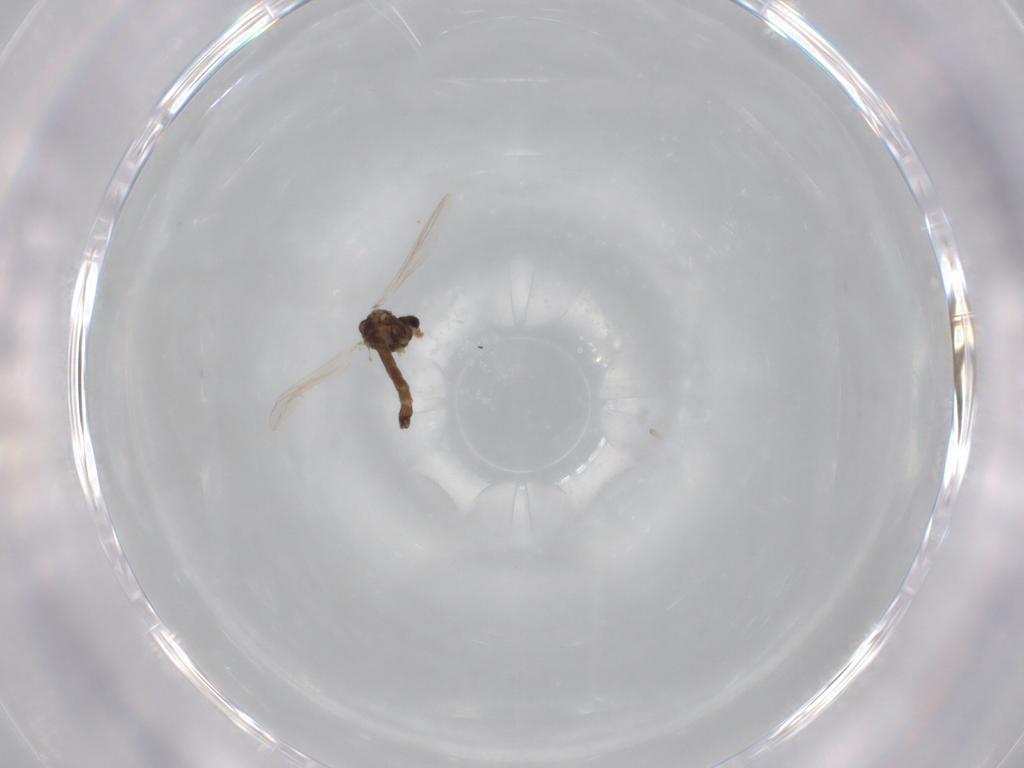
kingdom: Animalia
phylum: Arthropoda
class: Insecta
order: Diptera
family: Chironomidae
